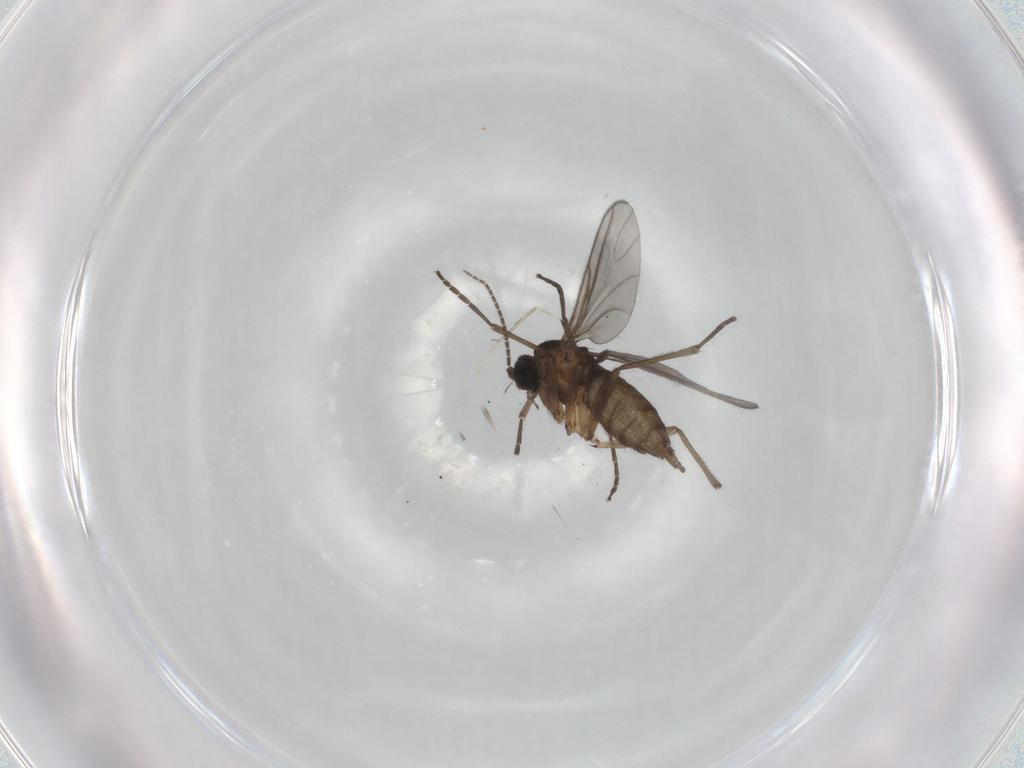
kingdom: Animalia
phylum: Arthropoda
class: Insecta
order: Diptera
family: Sciaridae
